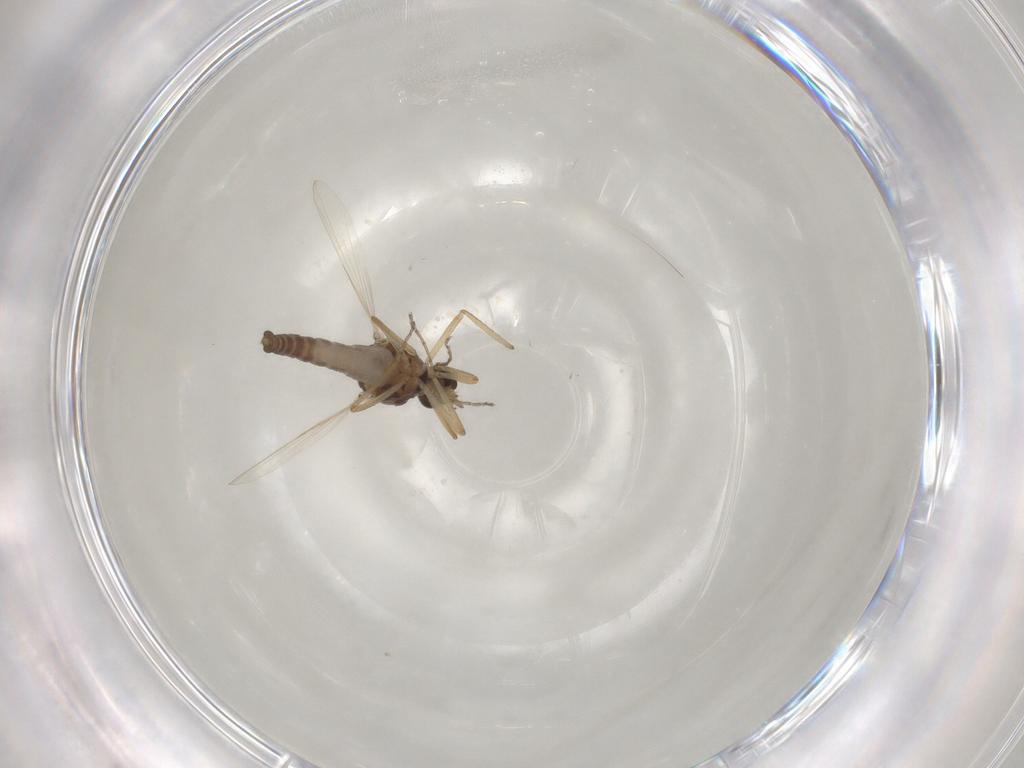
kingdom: Animalia
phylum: Arthropoda
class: Insecta
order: Diptera
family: Ceratopogonidae
